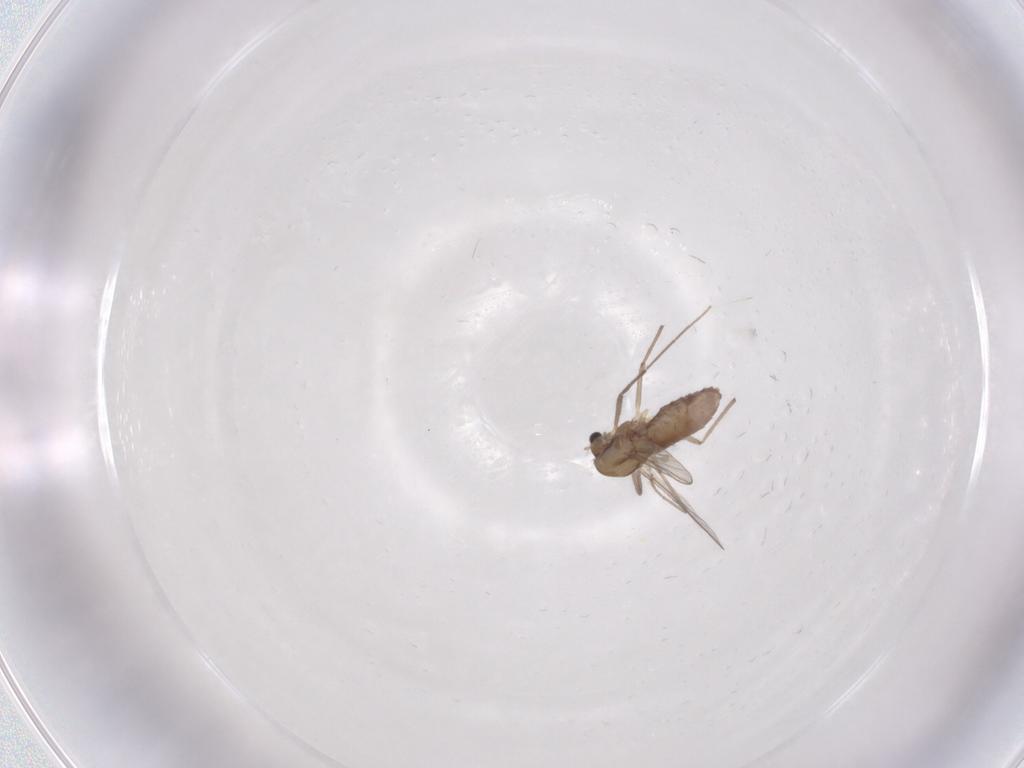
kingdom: Animalia
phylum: Arthropoda
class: Insecta
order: Diptera
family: Chironomidae
